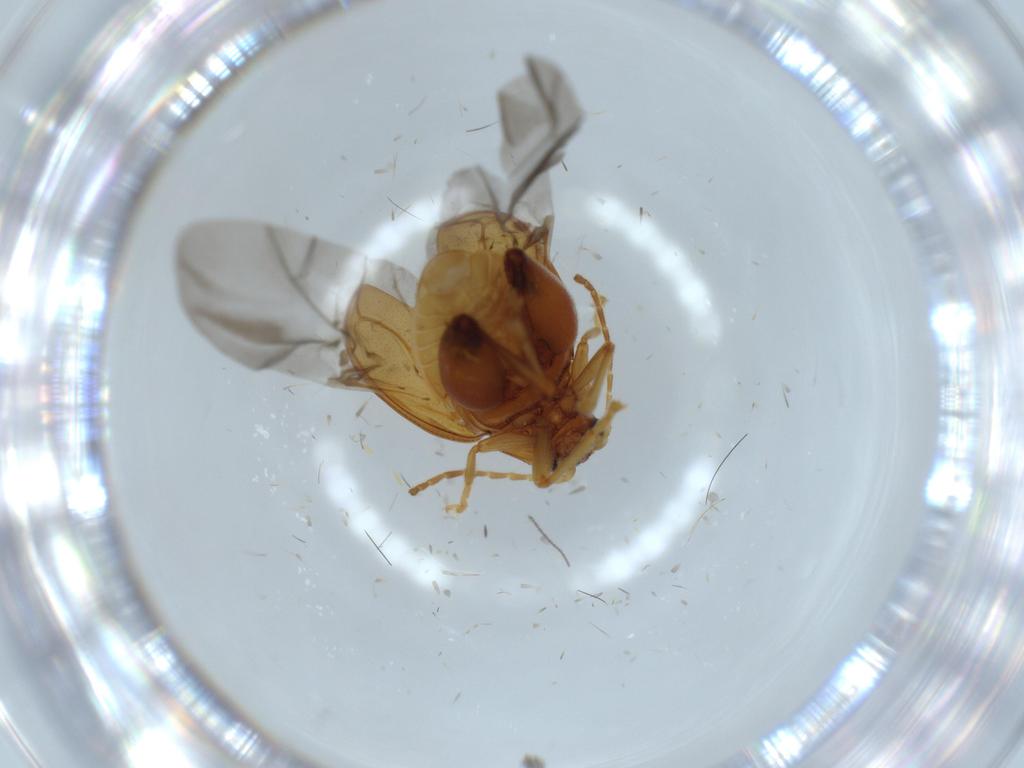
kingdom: Animalia
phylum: Arthropoda
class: Insecta
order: Coleoptera
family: Chrysomelidae
